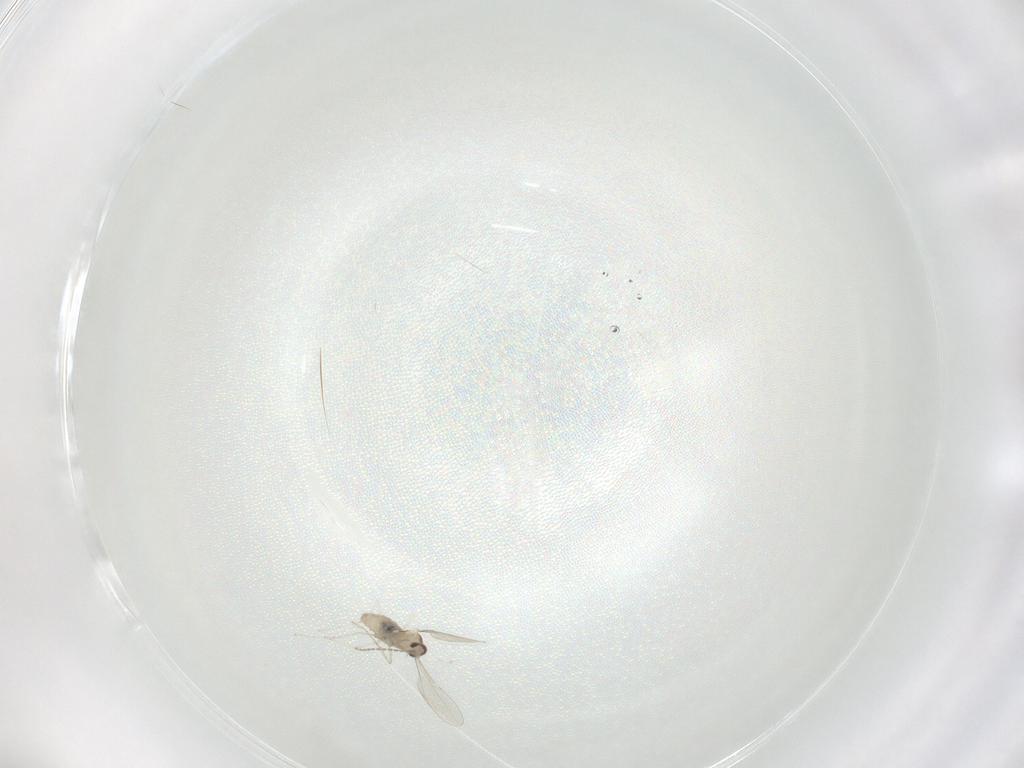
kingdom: Animalia
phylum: Arthropoda
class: Insecta
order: Diptera
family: Cecidomyiidae
